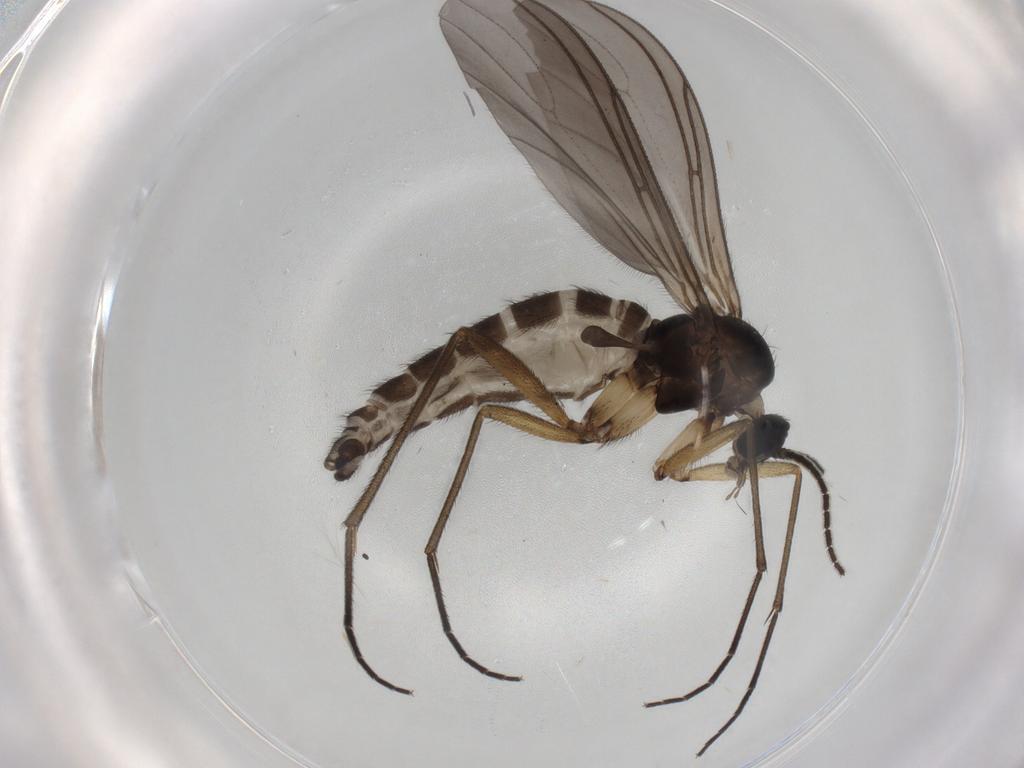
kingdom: Animalia
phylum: Arthropoda
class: Insecta
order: Diptera
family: Sciaridae
